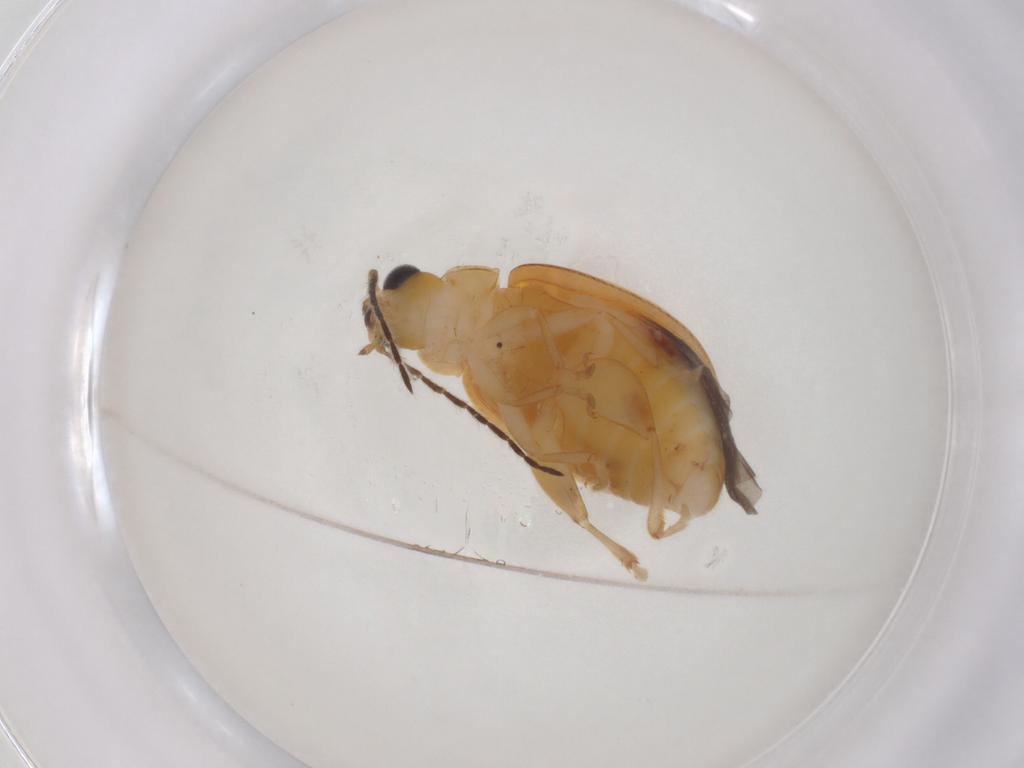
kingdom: Animalia
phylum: Arthropoda
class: Insecta
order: Coleoptera
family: Chrysomelidae
